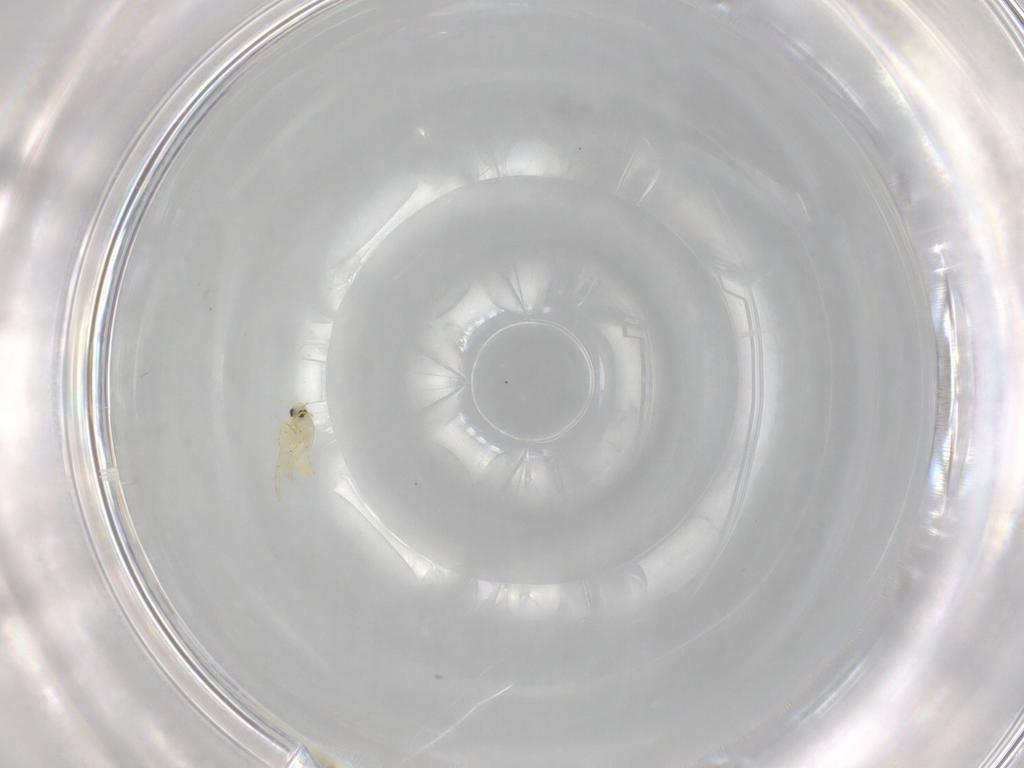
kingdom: Animalia
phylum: Arthropoda
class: Insecta
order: Hemiptera
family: Aleyrodidae
